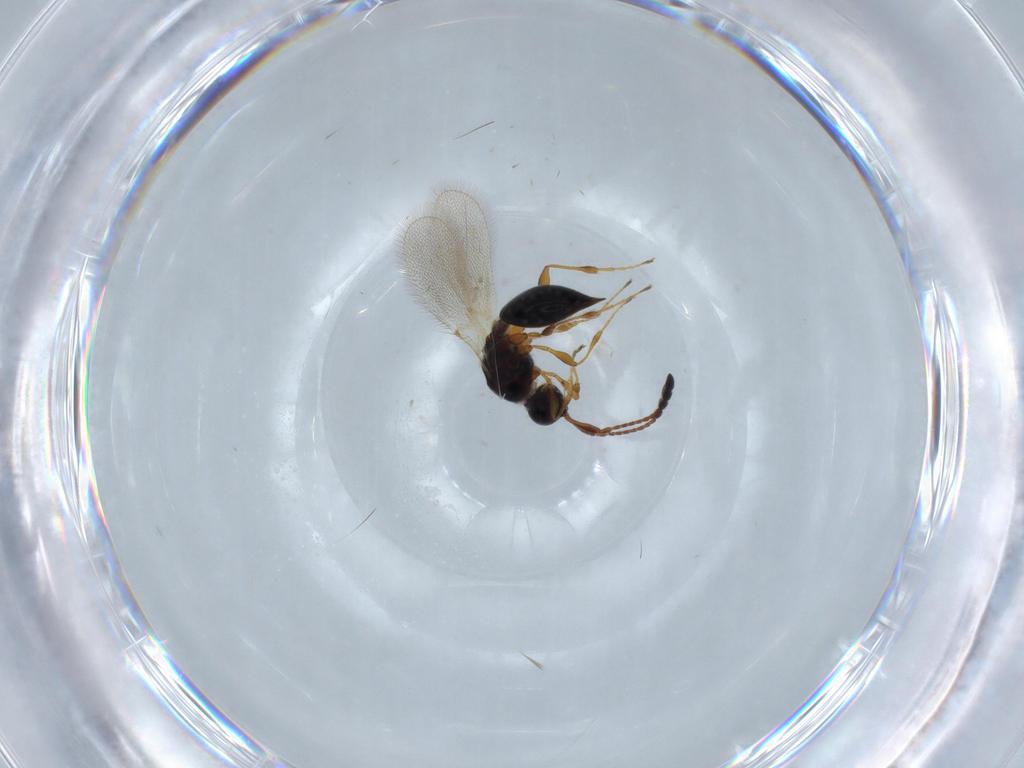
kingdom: Animalia
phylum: Arthropoda
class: Insecta
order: Hymenoptera
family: Diapriidae
